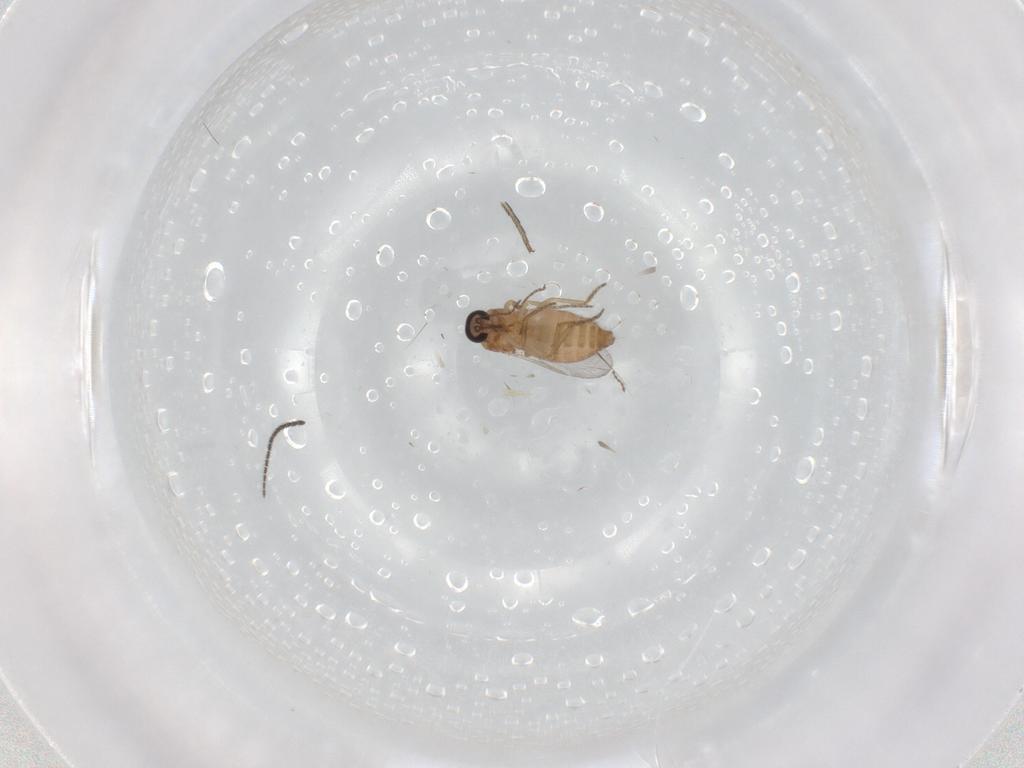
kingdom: Animalia
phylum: Arthropoda
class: Insecta
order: Diptera
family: Ceratopogonidae
